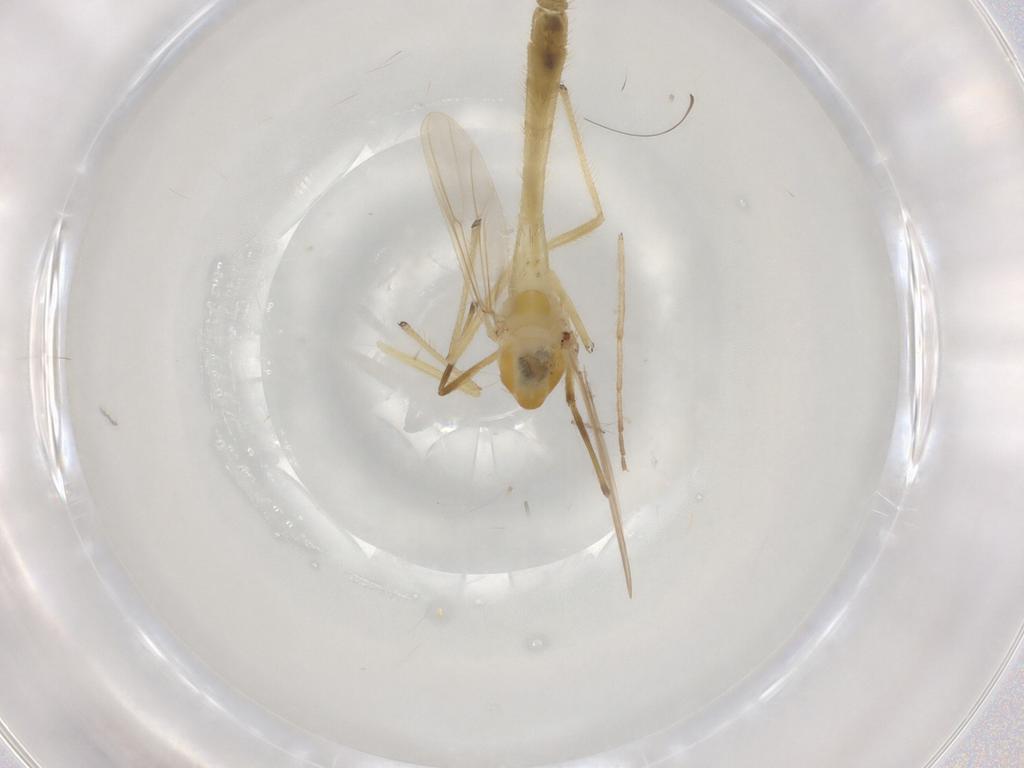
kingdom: Animalia
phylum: Arthropoda
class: Insecta
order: Diptera
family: Chironomidae
